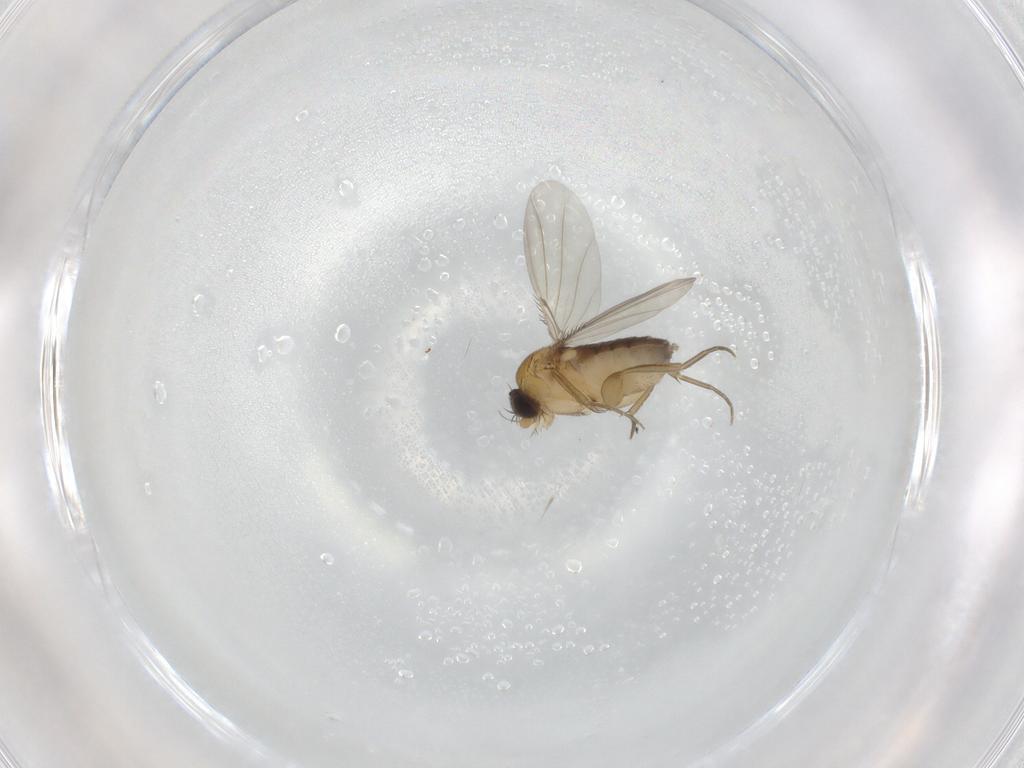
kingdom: Animalia
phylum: Arthropoda
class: Insecta
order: Diptera
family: Phoridae
